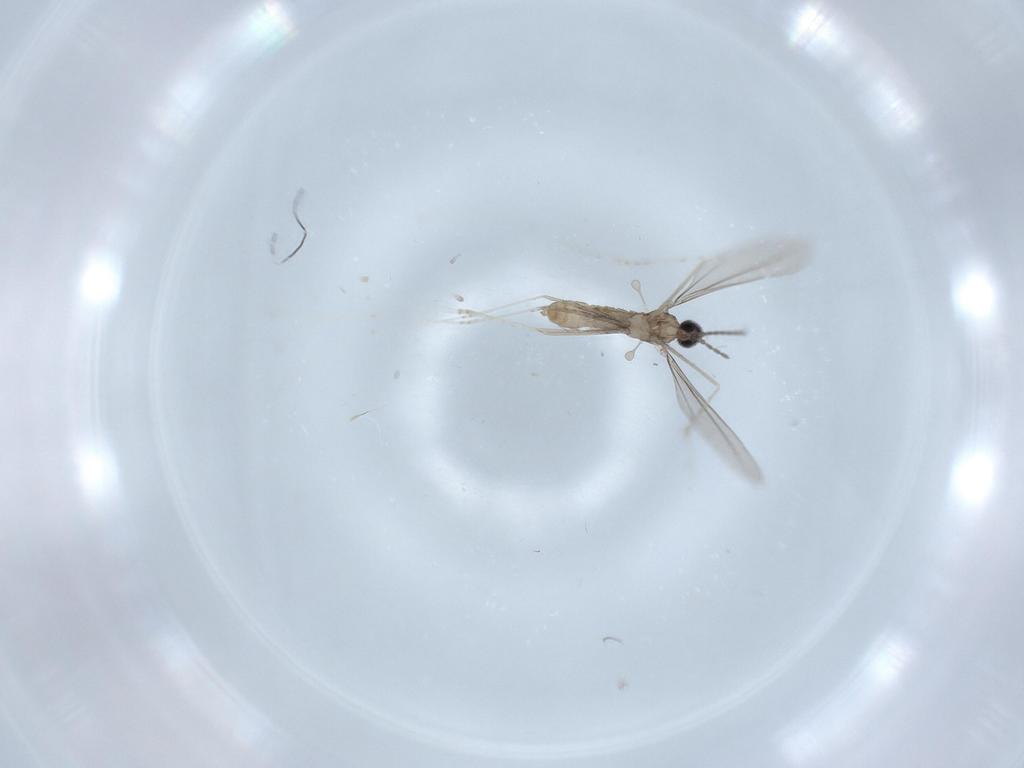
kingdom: Animalia
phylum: Arthropoda
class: Insecta
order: Diptera
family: Cecidomyiidae
